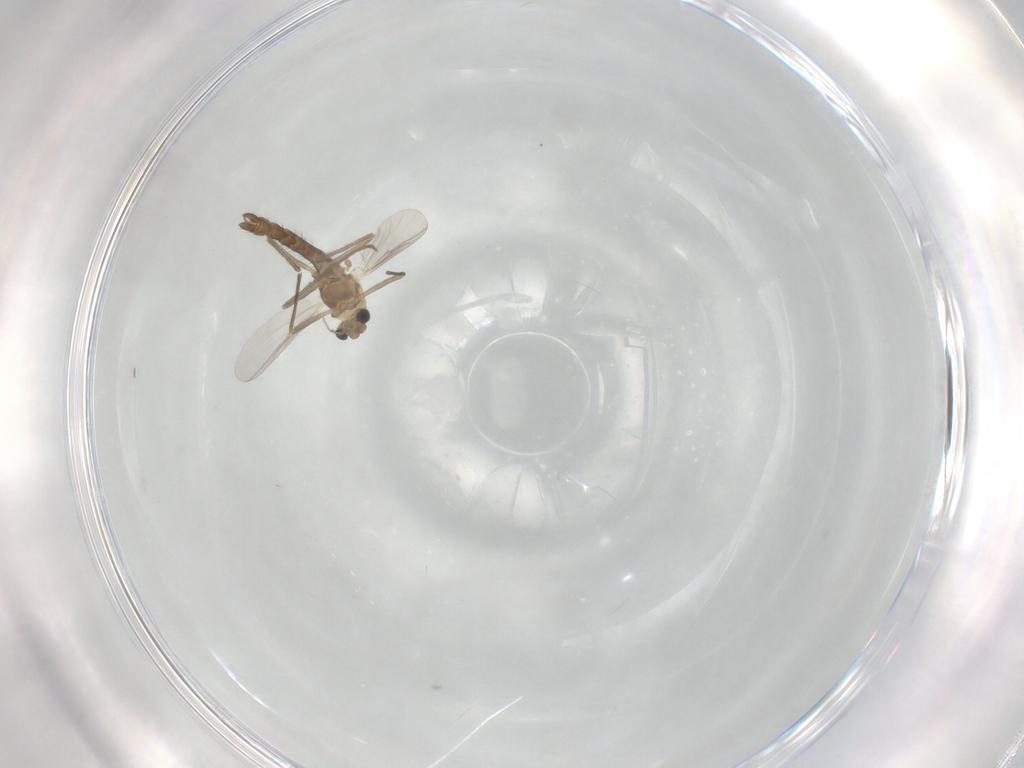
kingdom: Animalia
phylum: Arthropoda
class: Insecta
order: Diptera
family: Chironomidae
